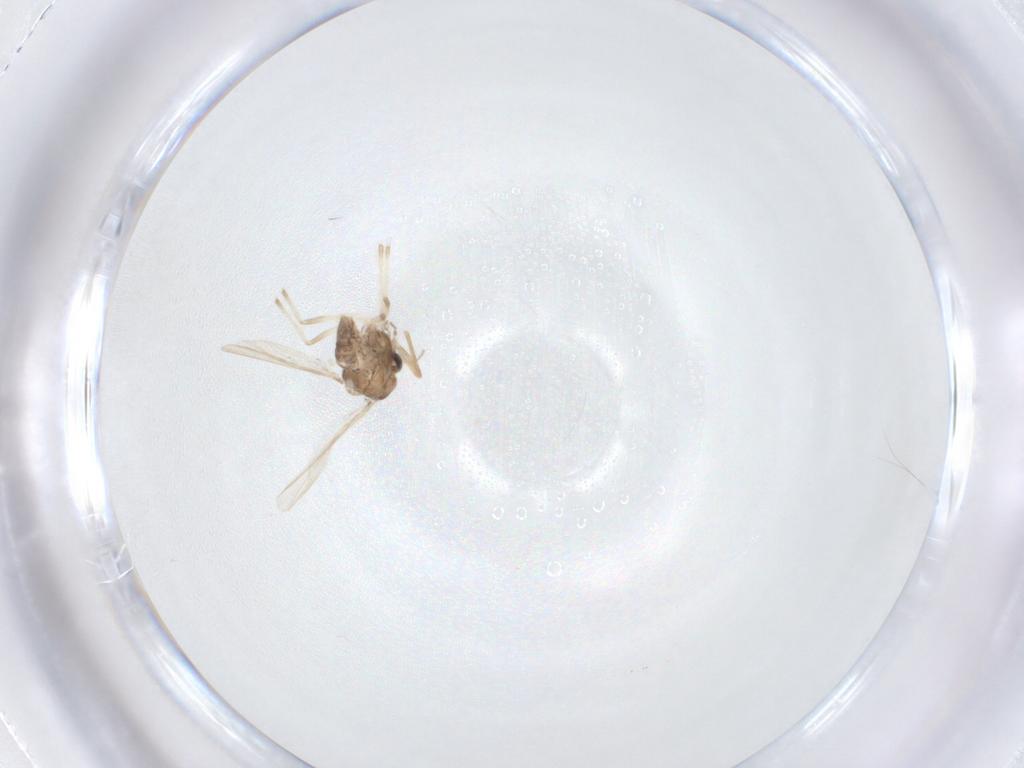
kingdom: Animalia
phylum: Arthropoda
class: Insecta
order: Diptera
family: Chironomidae
